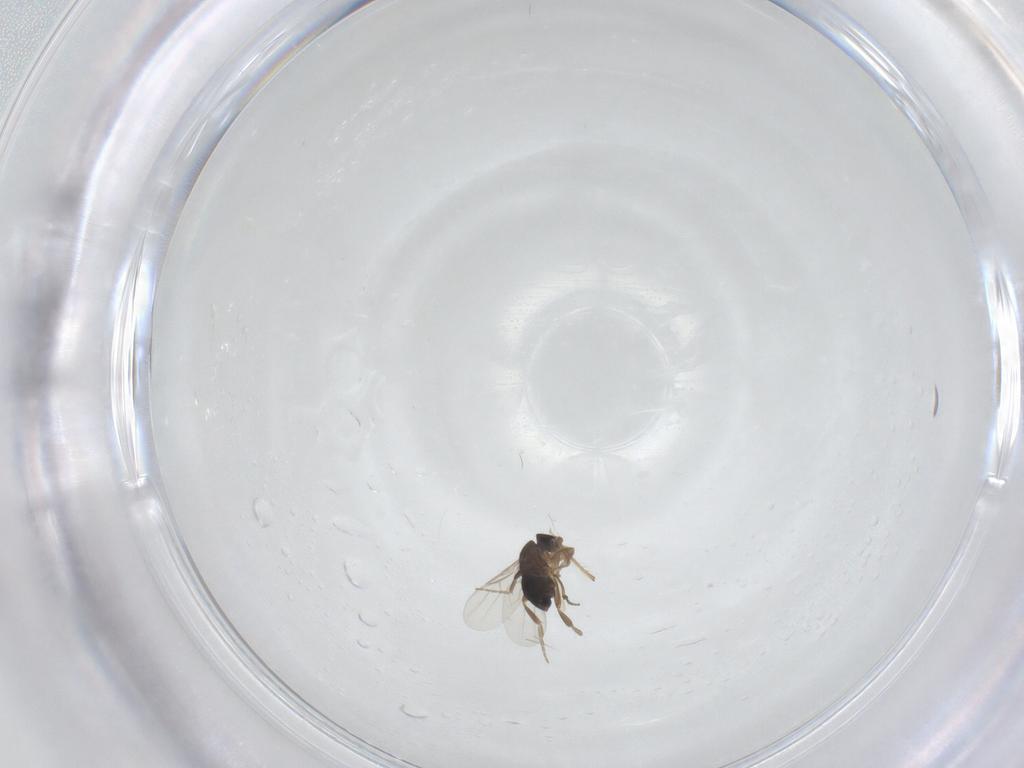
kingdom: Animalia
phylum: Arthropoda
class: Insecta
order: Diptera
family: Phoridae
